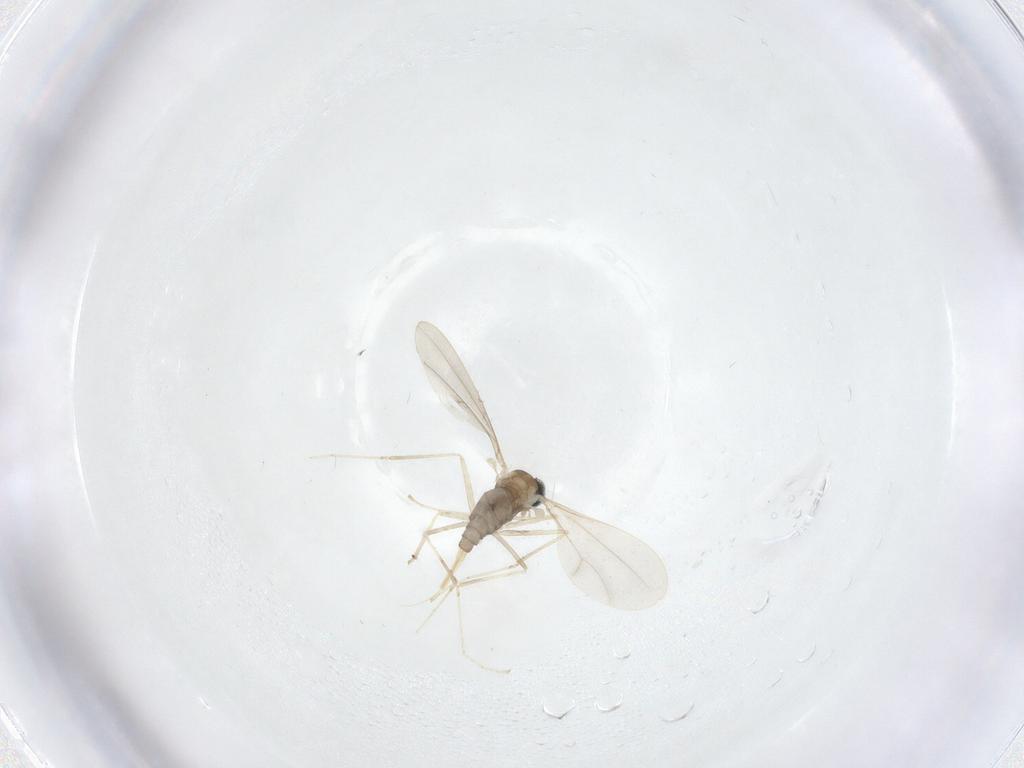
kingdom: Animalia
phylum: Arthropoda
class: Insecta
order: Diptera
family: Cecidomyiidae
